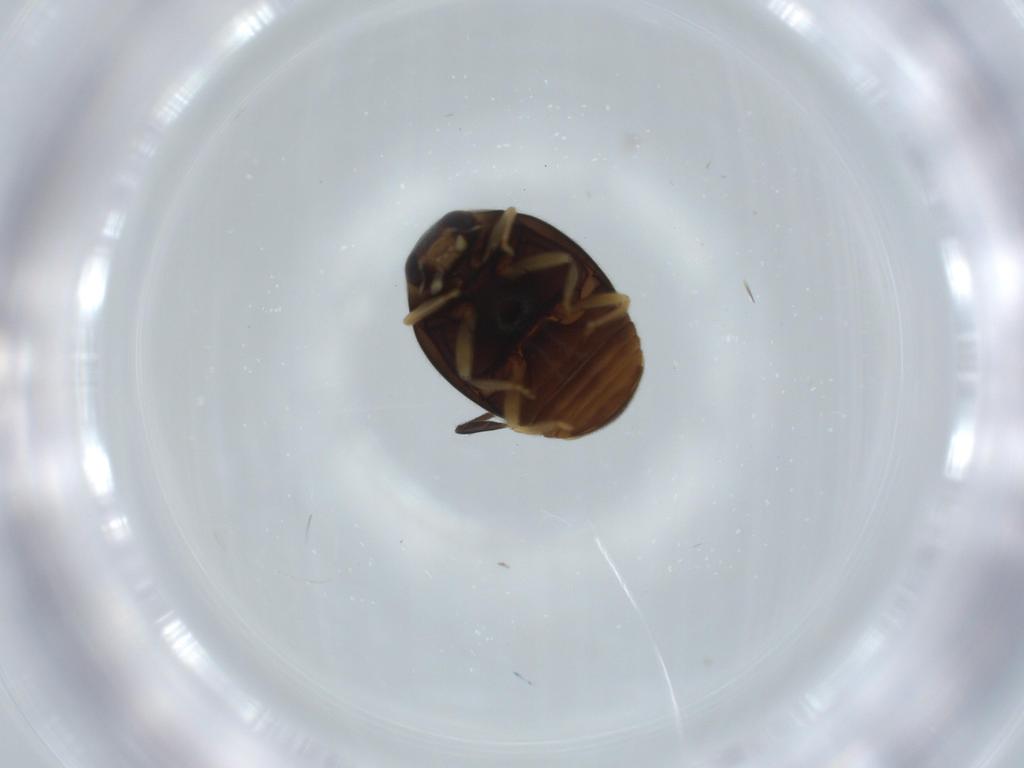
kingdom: Animalia
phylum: Arthropoda
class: Insecta
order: Coleoptera
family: Coccinellidae
